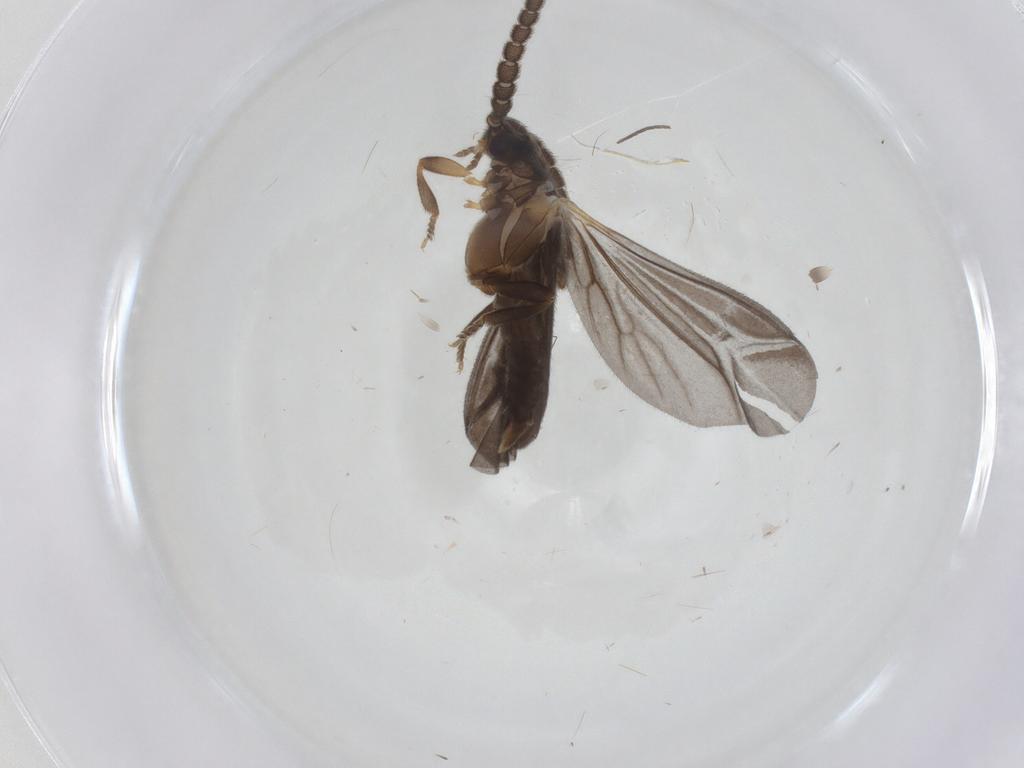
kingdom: Animalia
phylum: Arthropoda
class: Insecta
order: Coleoptera
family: Lycidae
